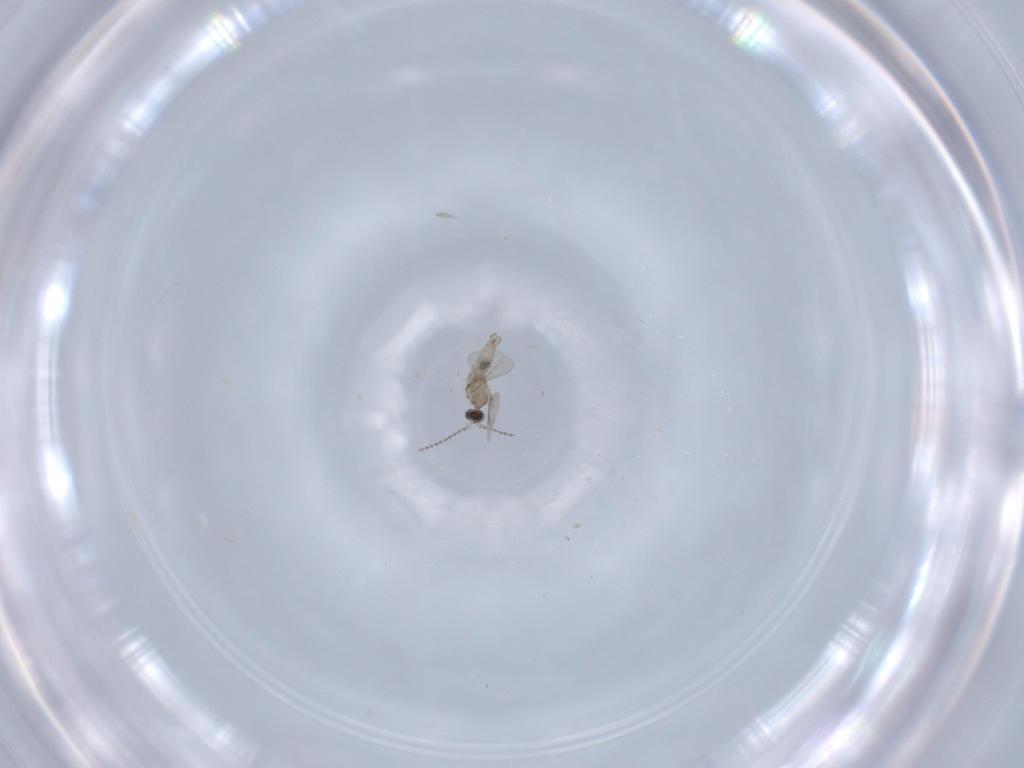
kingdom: Animalia
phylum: Arthropoda
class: Insecta
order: Diptera
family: Cecidomyiidae
